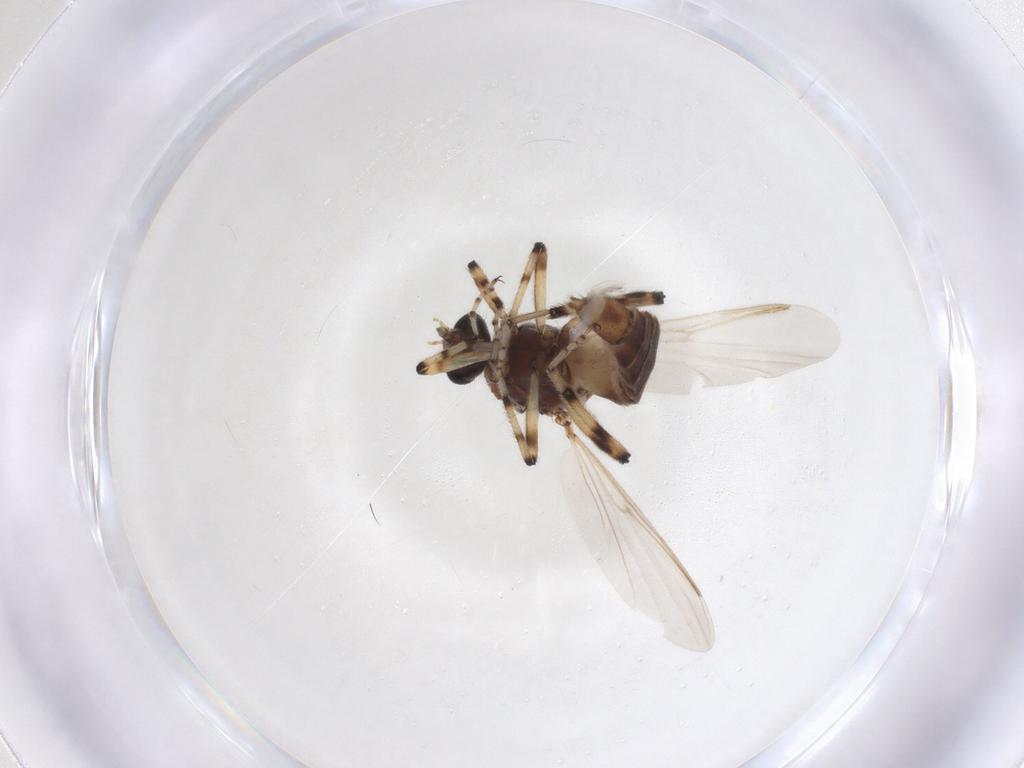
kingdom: Animalia
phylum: Arthropoda
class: Insecta
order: Diptera
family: Ceratopogonidae
